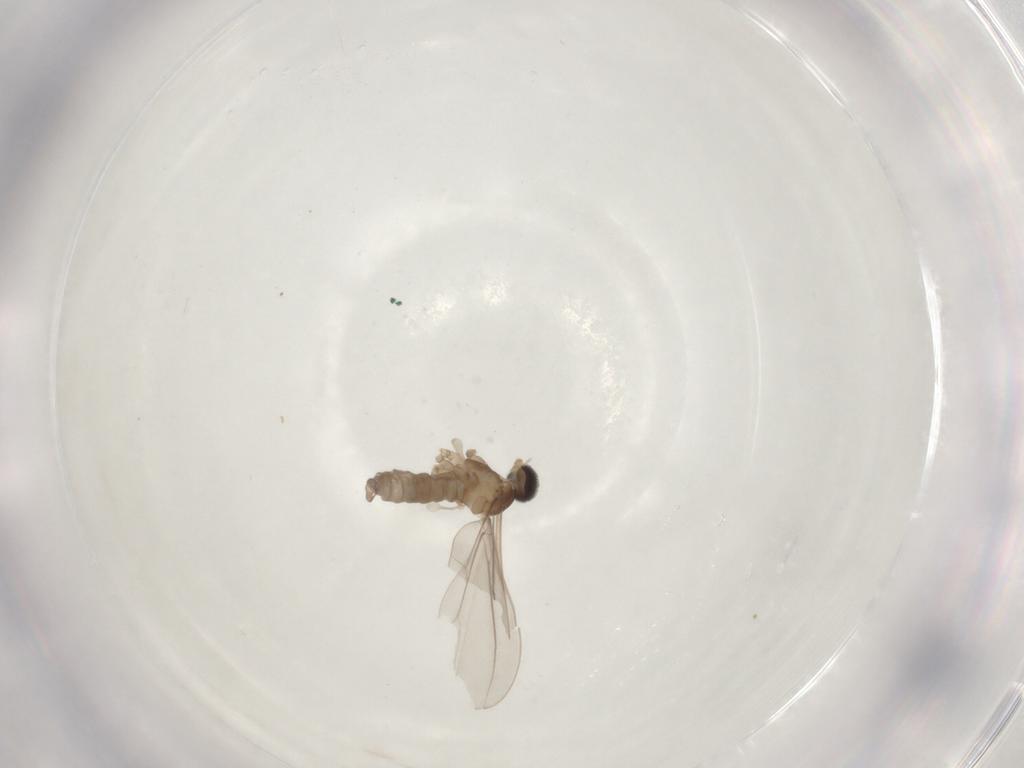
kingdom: Animalia
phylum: Arthropoda
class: Insecta
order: Diptera
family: Cecidomyiidae
